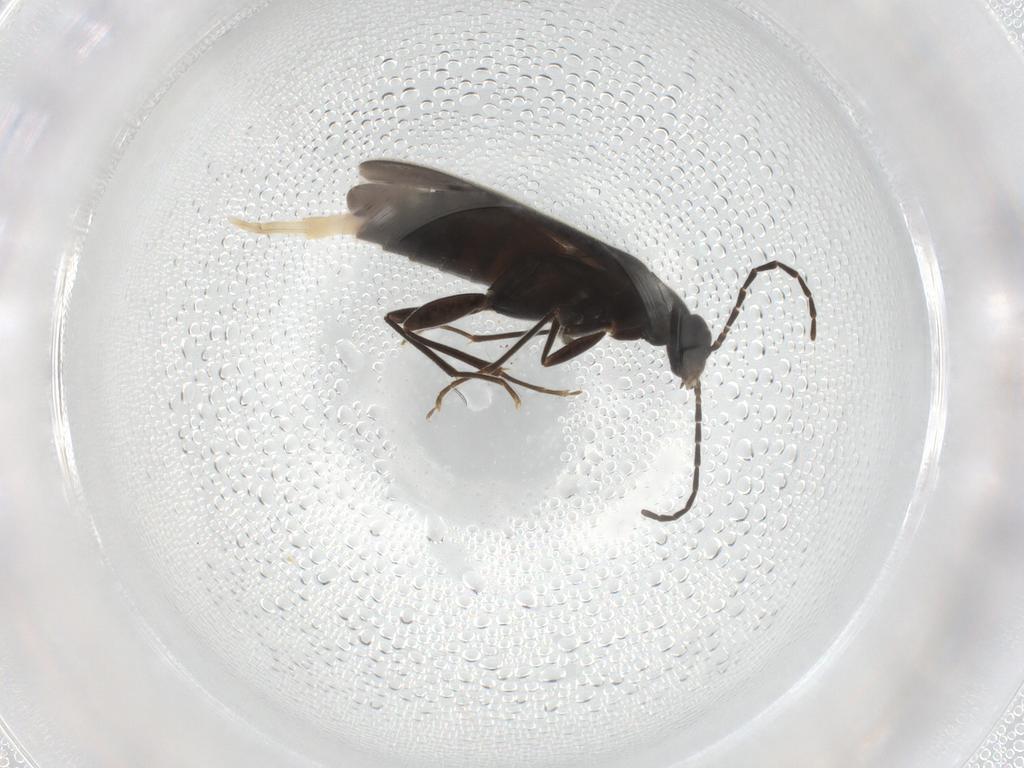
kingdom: Animalia
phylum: Arthropoda
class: Insecta
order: Coleoptera
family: Scraptiidae
